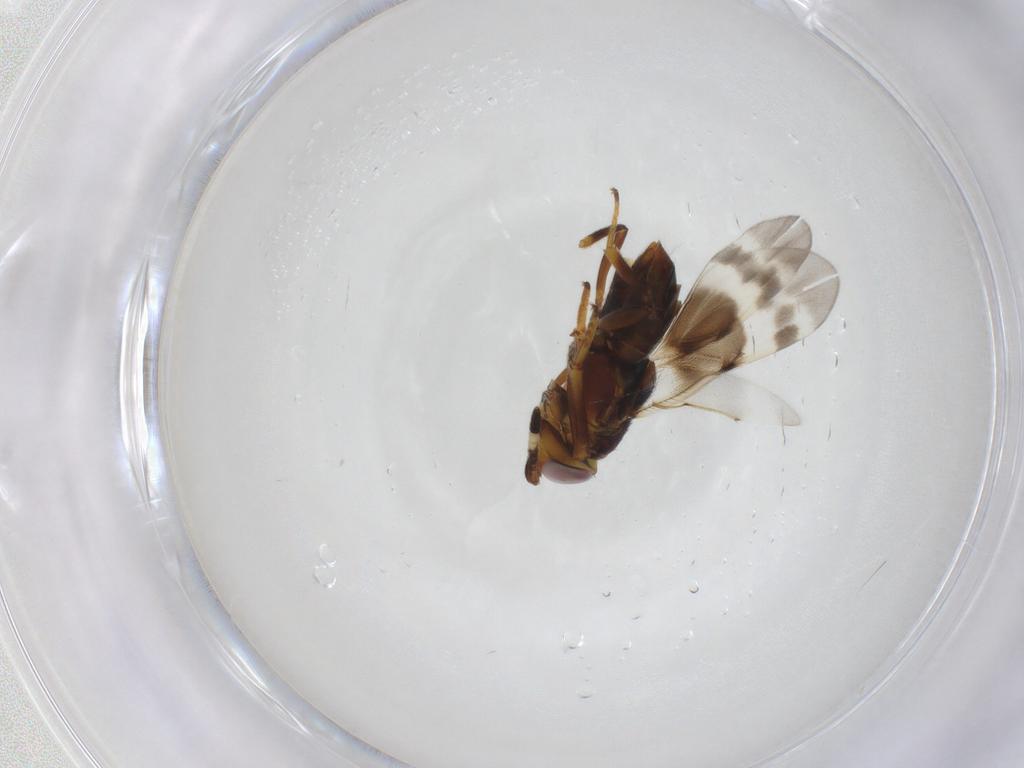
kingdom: Animalia
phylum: Arthropoda
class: Insecta
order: Hymenoptera
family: Encyrtidae
